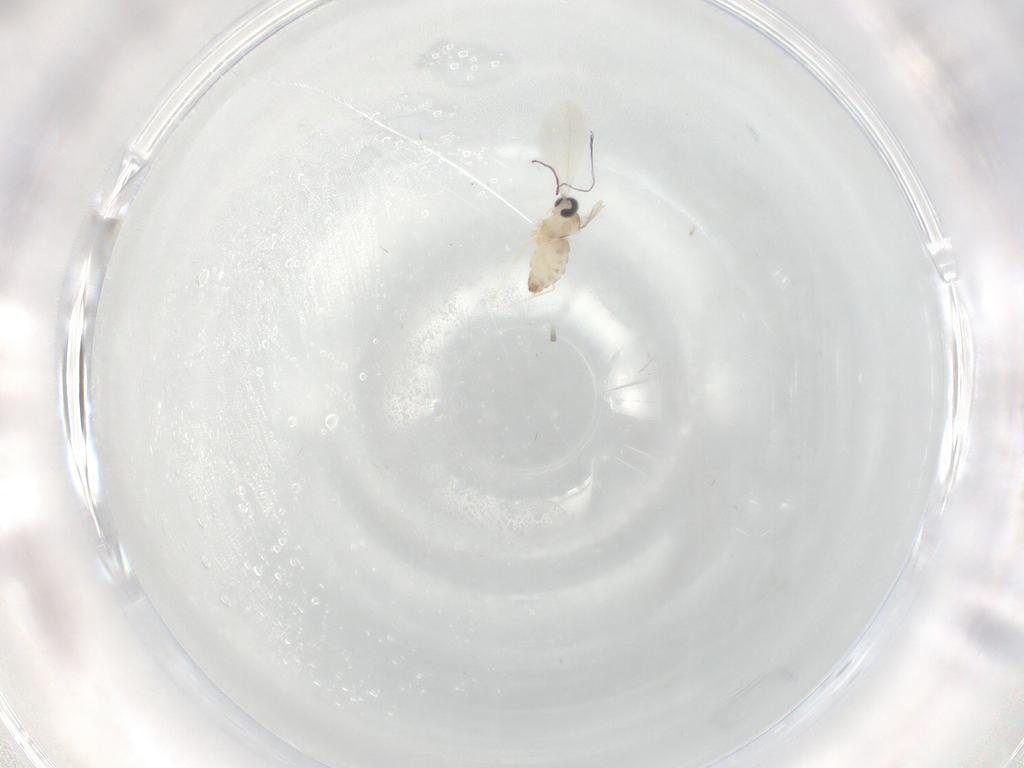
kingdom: Animalia
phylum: Arthropoda
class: Insecta
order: Diptera
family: Cecidomyiidae
